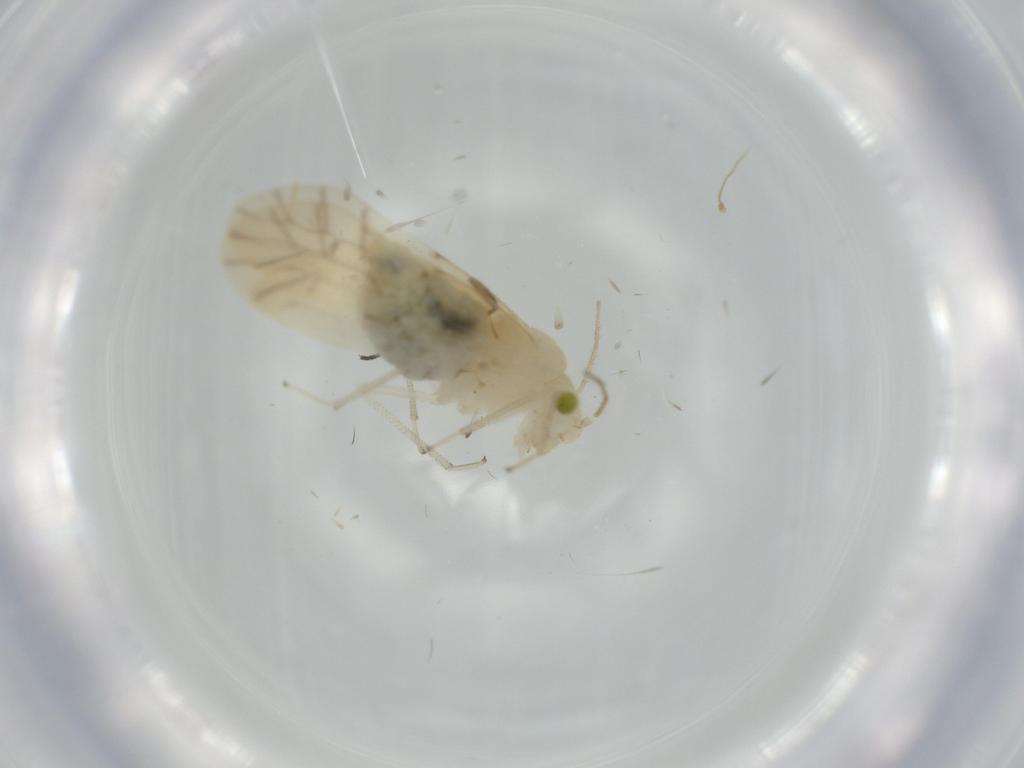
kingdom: Animalia
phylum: Arthropoda
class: Insecta
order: Psocodea
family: Caeciliusidae
